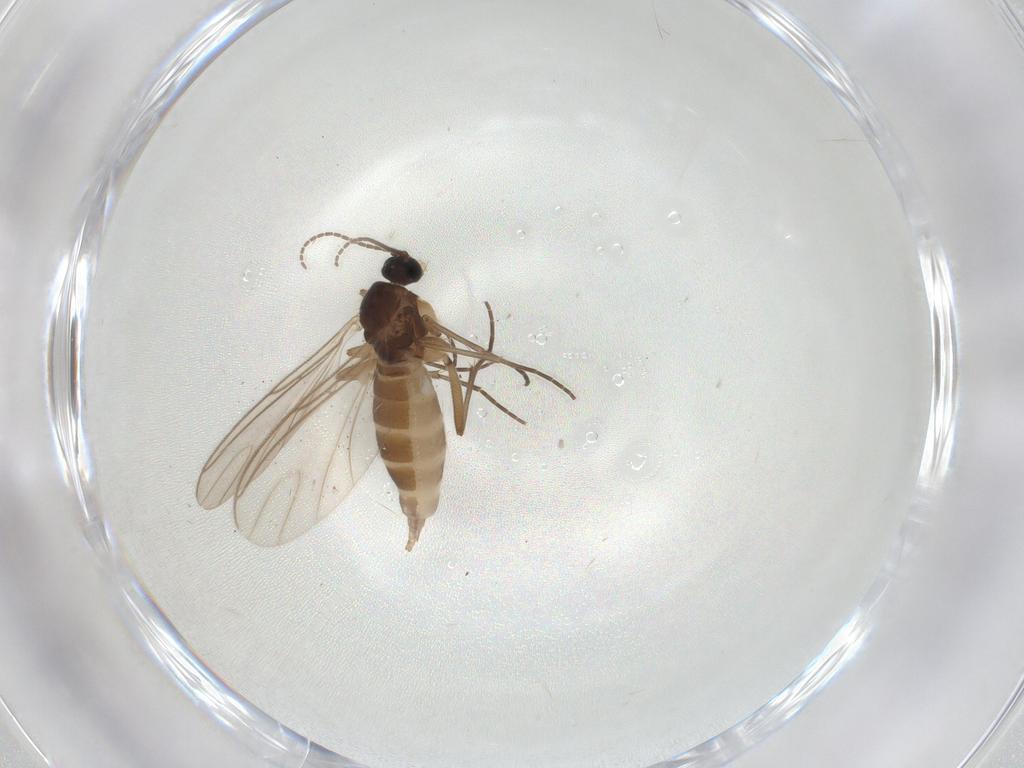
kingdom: Animalia
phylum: Arthropoda
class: Insecta
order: Diptera
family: Sciaridae
